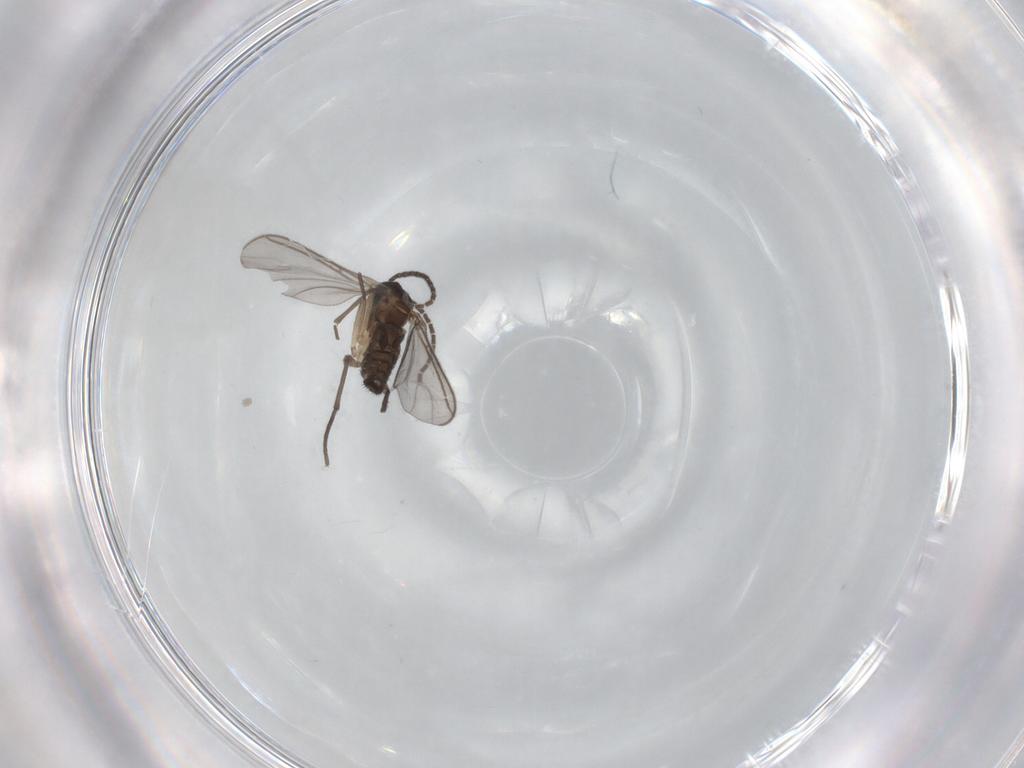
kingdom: Animalia
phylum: Arthropoda
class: Insecta
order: Diptera
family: Sciaridae
